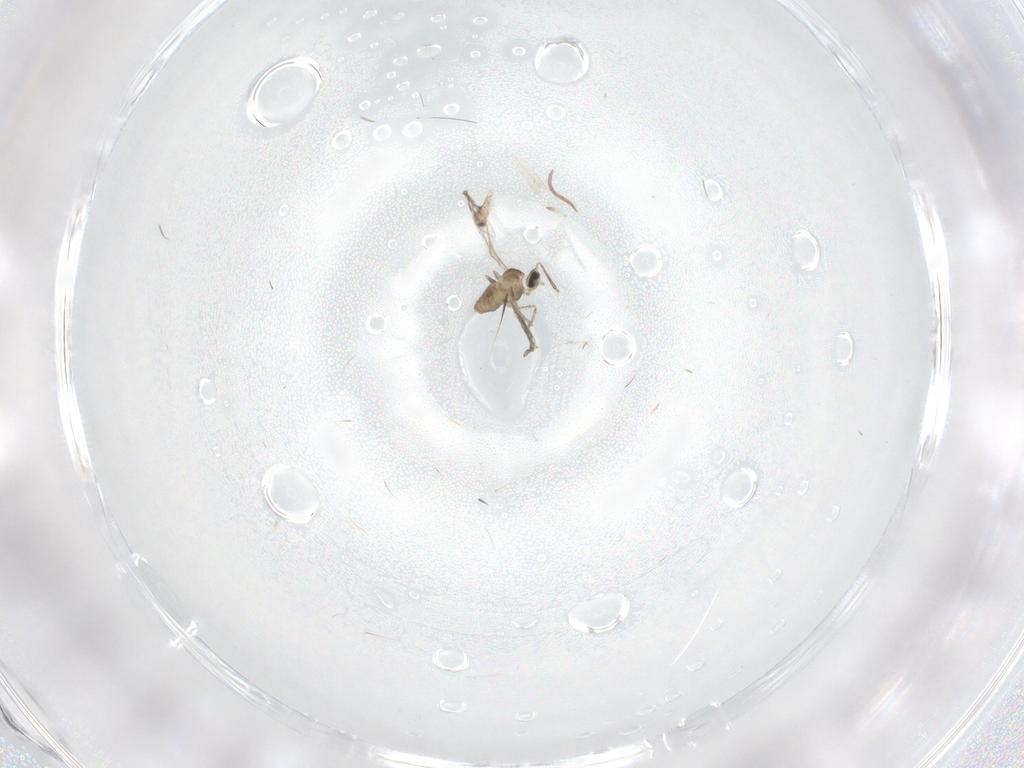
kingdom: Animalia
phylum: Arthropoda
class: Insecta
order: Diptera
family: Cecidomyiidae
